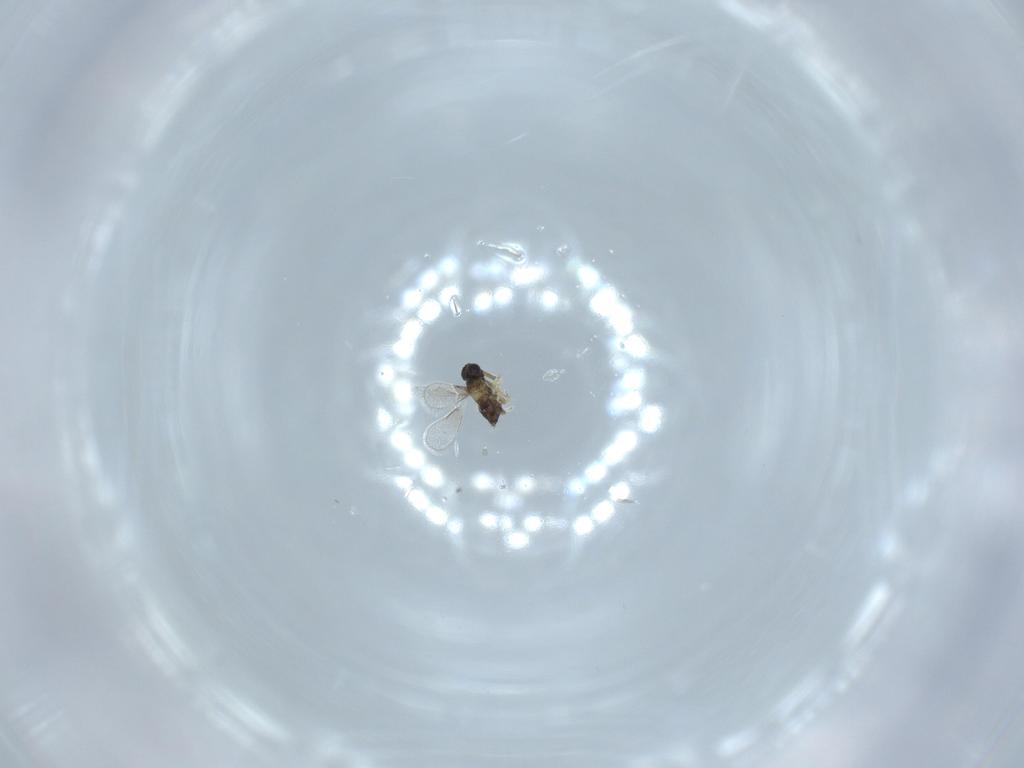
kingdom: Animalia
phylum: Arthropoda
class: Insecta
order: Hymenoptera
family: Aphelinidae
